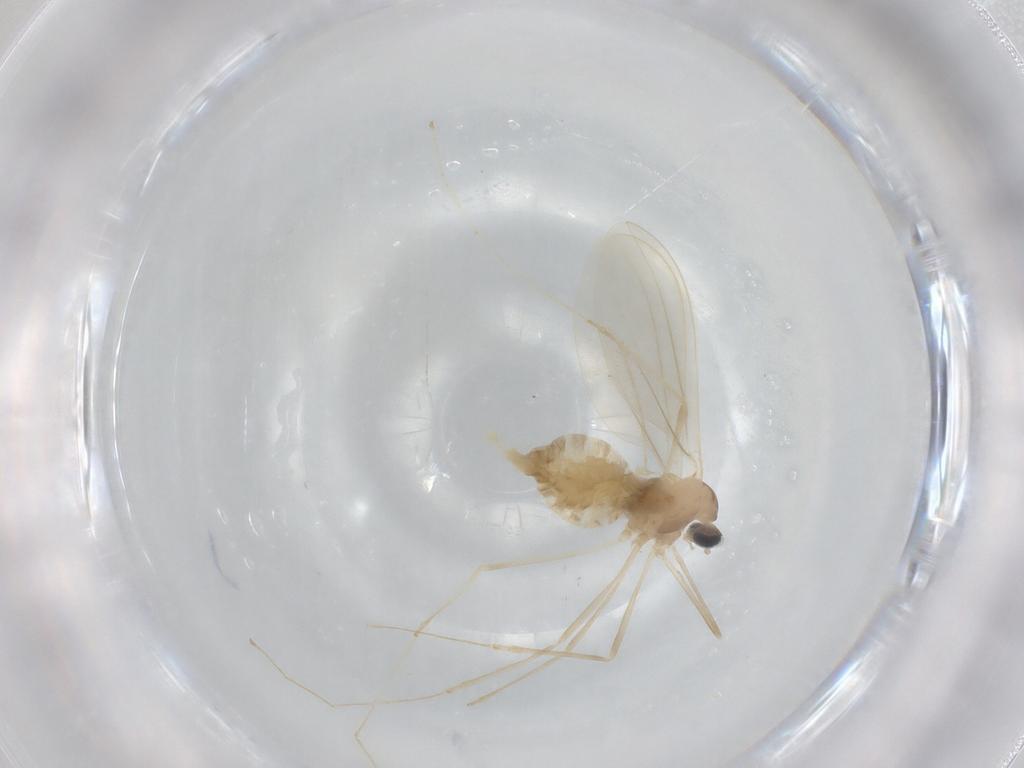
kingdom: Animalia
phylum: Arthropoda
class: Insecta
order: Diptera
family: Cecidomyiidae
